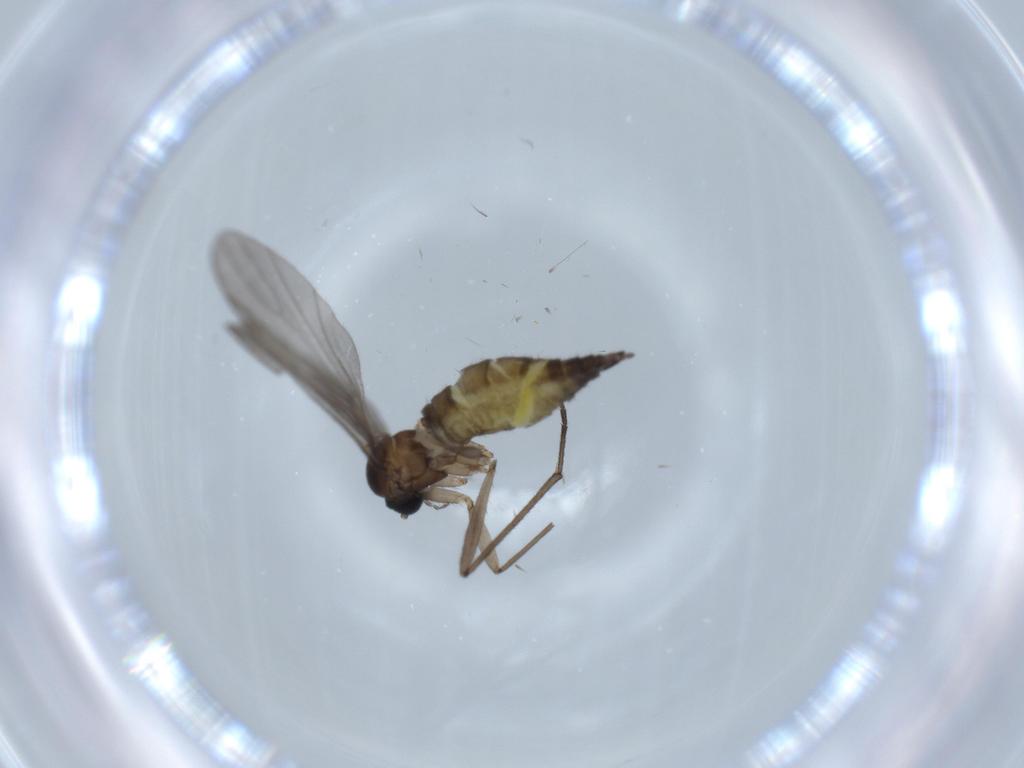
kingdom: Animalia
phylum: Arthropoda
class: Insecta
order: Diptera
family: Sciaridae
